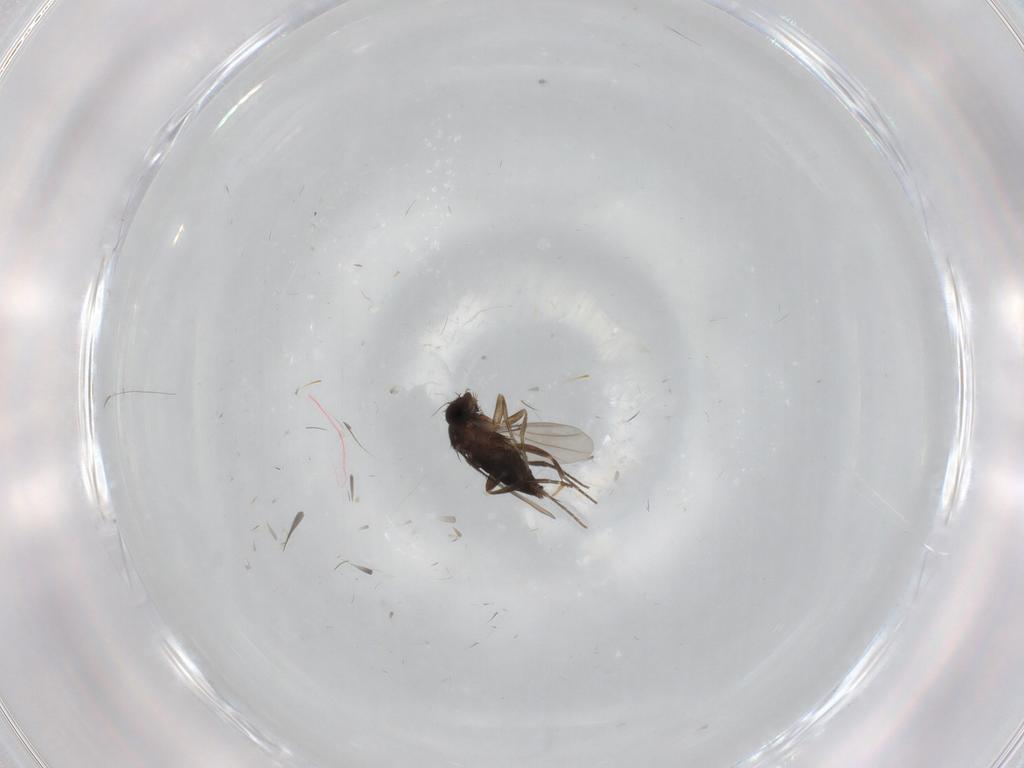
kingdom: Animalia
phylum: Arthropoda
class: Insecta
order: Diptera
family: Phoridae
